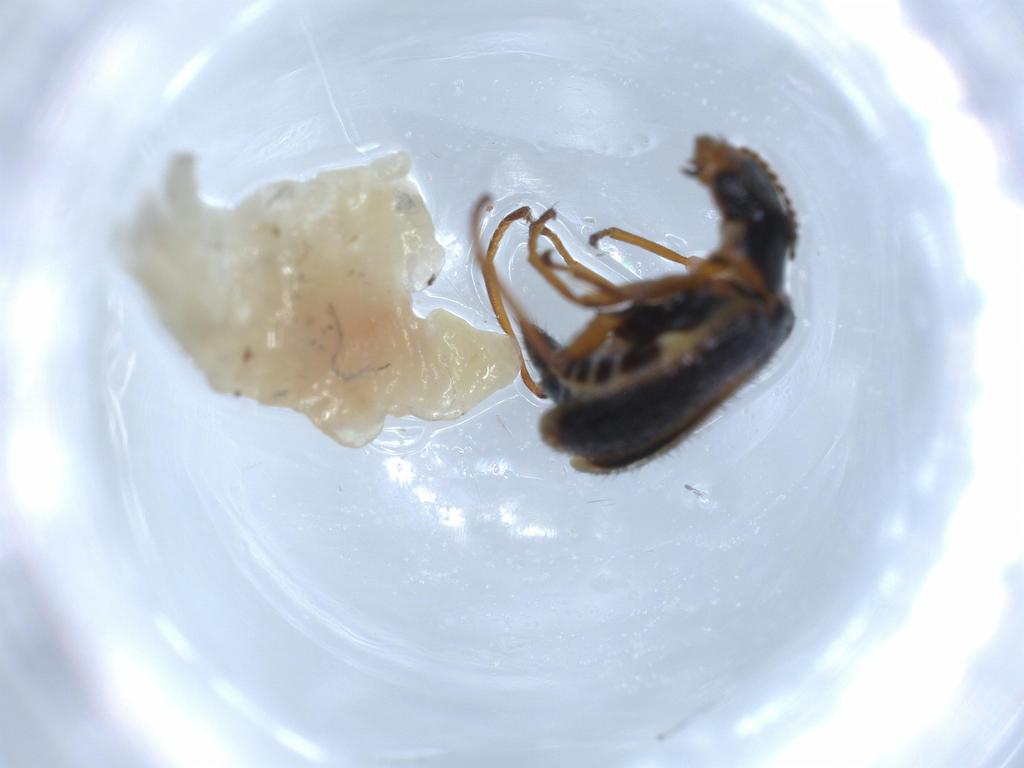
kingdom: Animalia
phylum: Arthropoda
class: Insecta
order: Coleoptera
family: Melyridae
